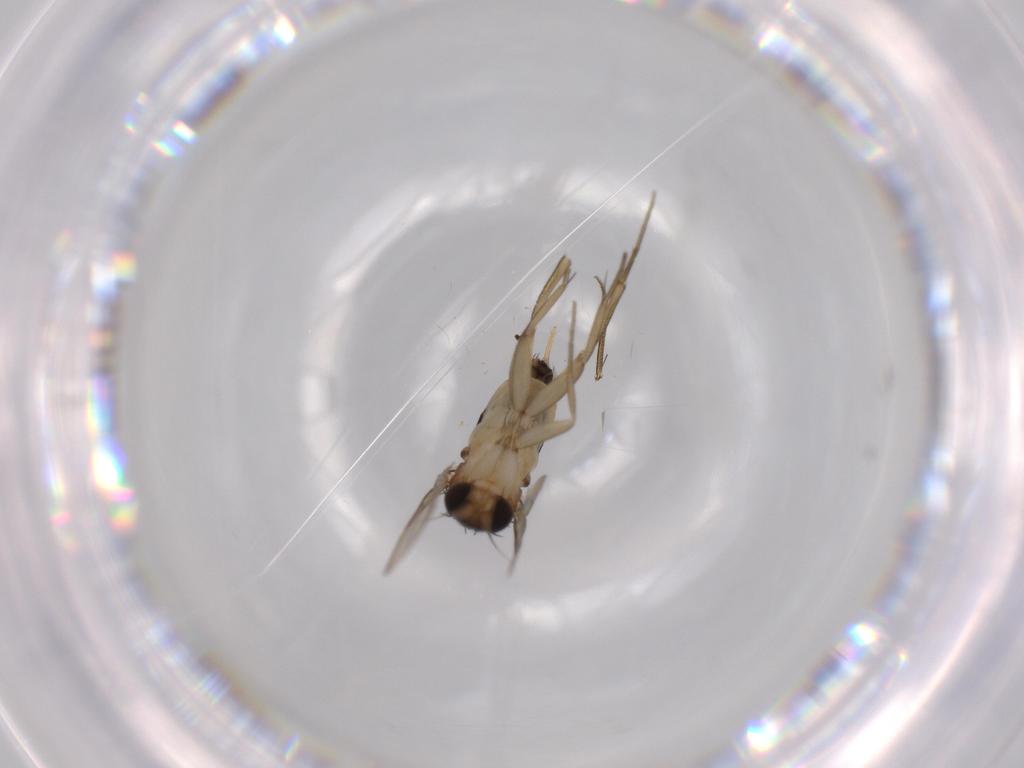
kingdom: Animalia
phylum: Arthropoda
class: Insecta
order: Diptera
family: Phoridae
